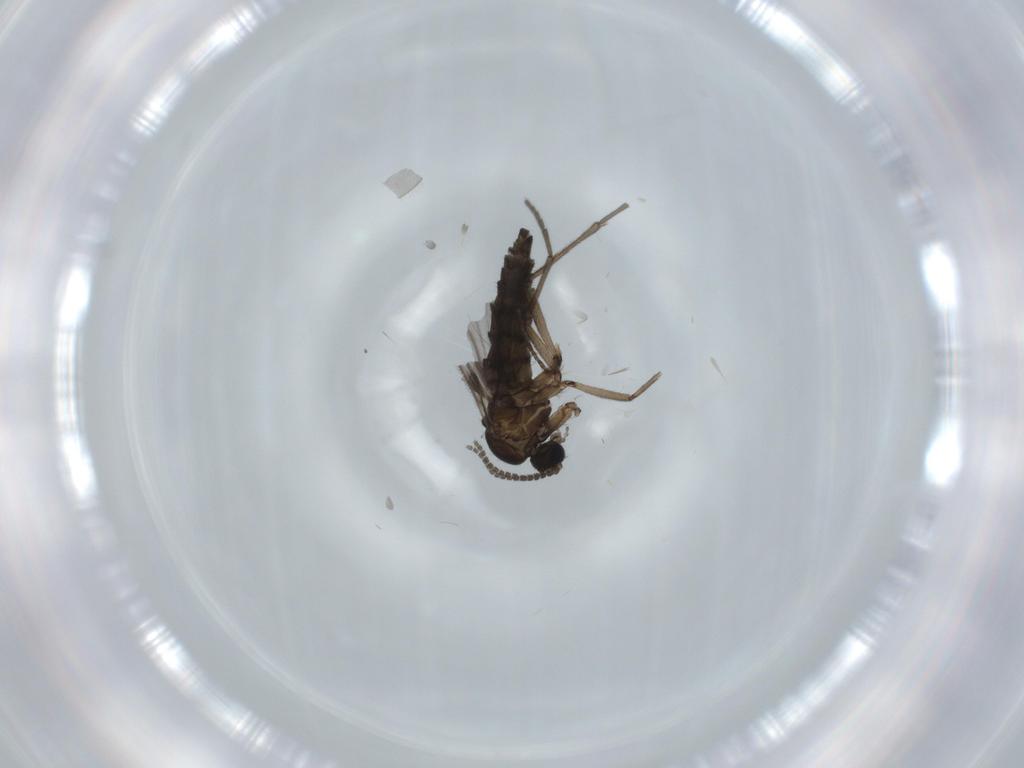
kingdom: Animalia
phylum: Arthropoda
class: Insecta
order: Diptera
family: Sciaridae
